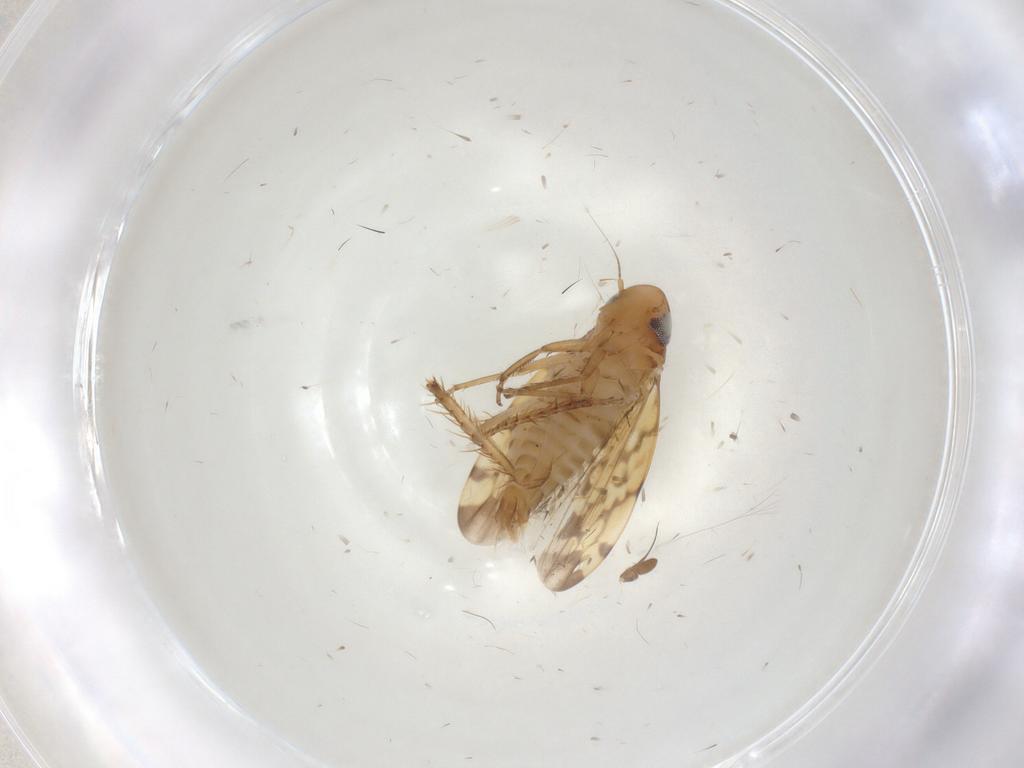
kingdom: Animalia
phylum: Arthropoda
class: Insecta
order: Hemiptera
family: Cicadellidae
